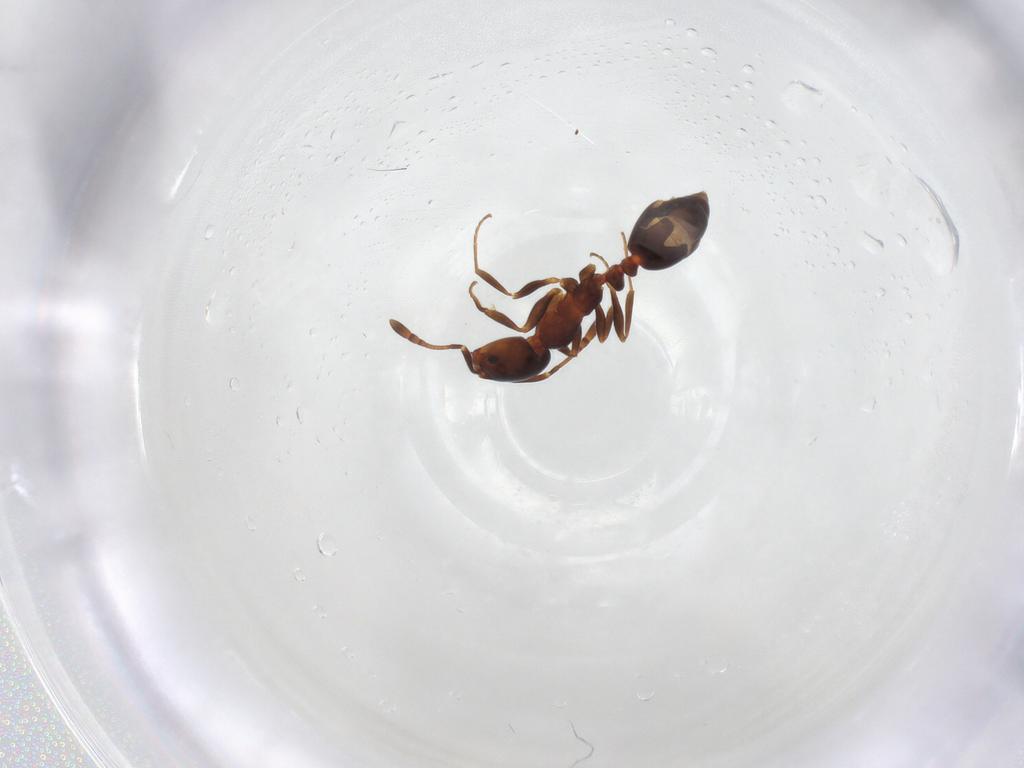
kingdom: Animalia
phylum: Arthropoda
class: Insecta
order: Hymenoptera
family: Formicidae
